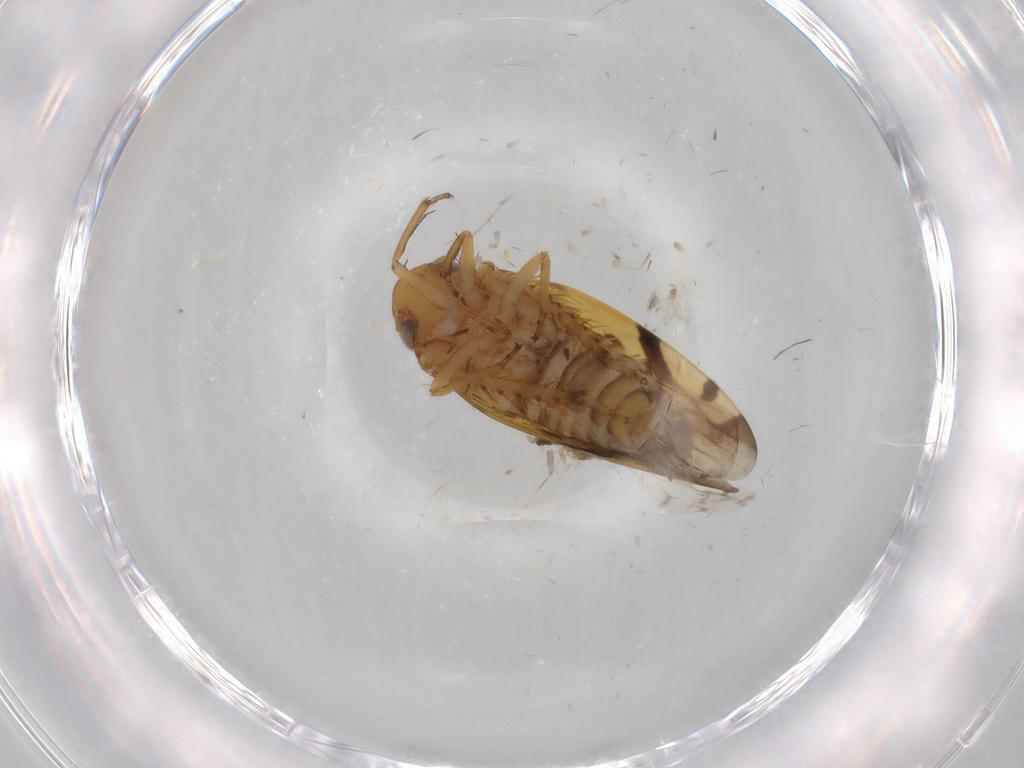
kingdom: Animalia
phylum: Arthropoda
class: Insecta
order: Hemiptera
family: Cicadellidae
